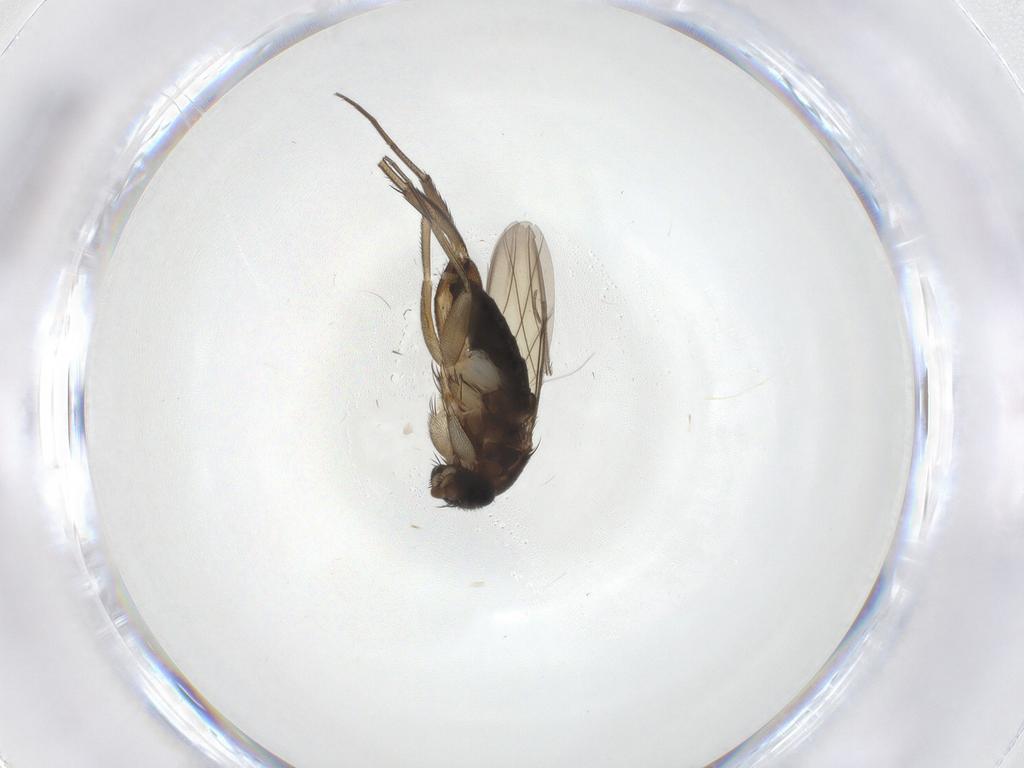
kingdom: Animalia
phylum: Arthropoda
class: Insecta
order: Diptera
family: Phoridae
